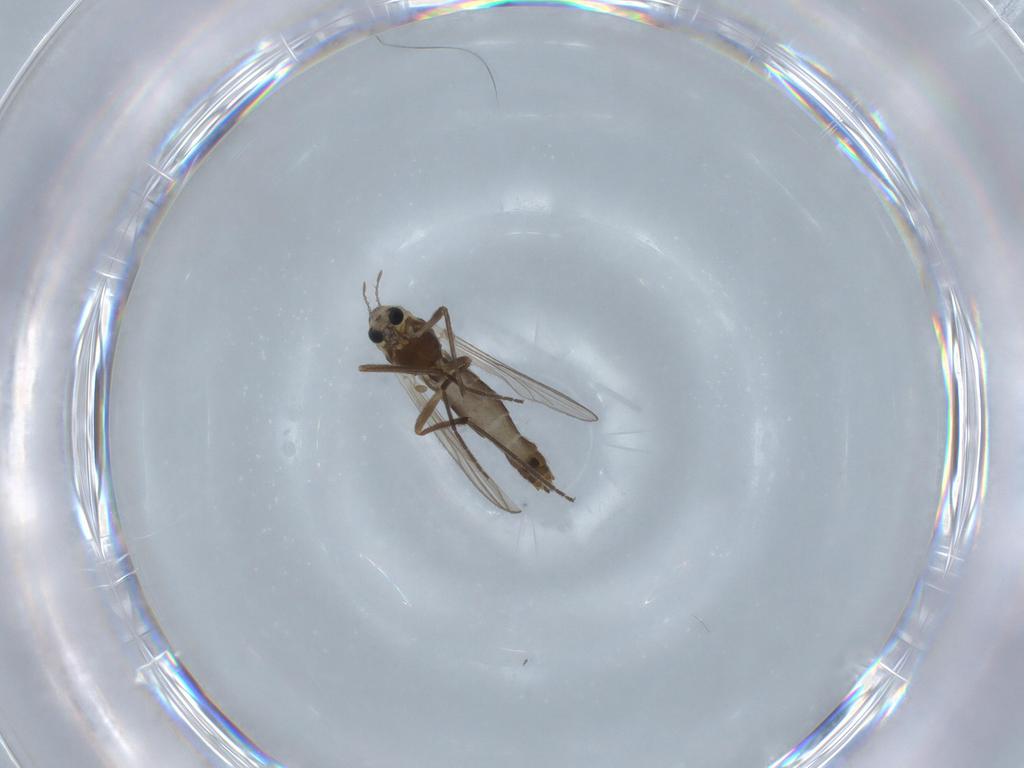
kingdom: Animalia
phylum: Arthropoda
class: Insecta
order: Diptera
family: Chironomidae
